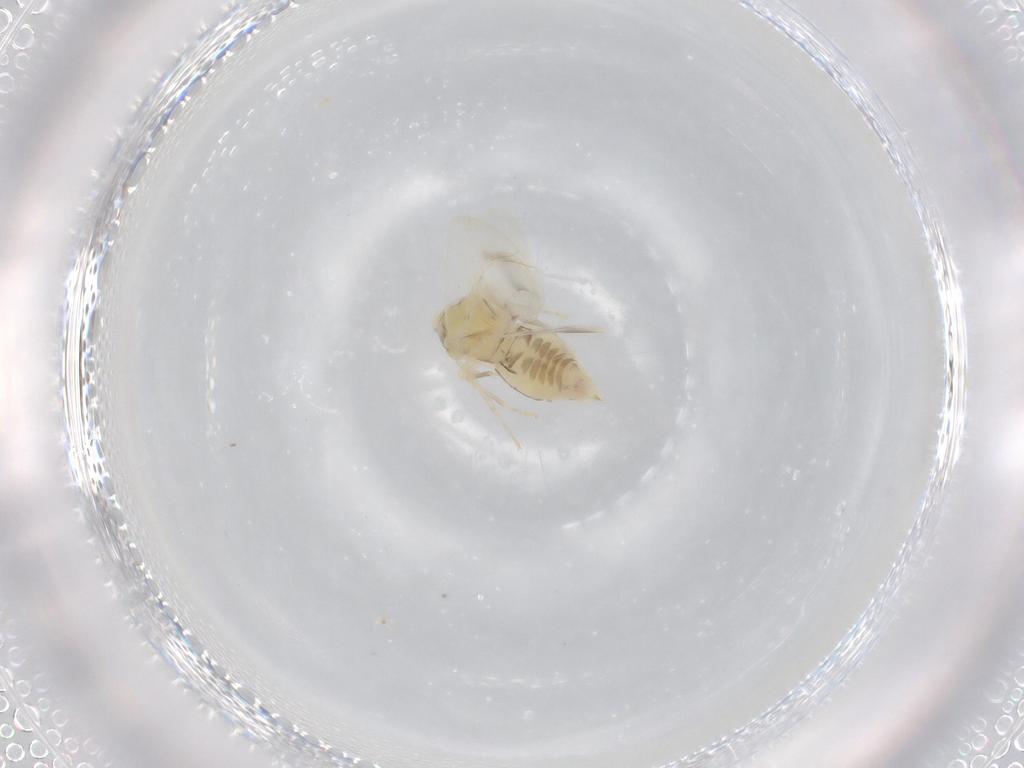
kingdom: Animalia
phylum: Arthropoda
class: Insecta
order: Hemiptera
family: Aleyrodidae
